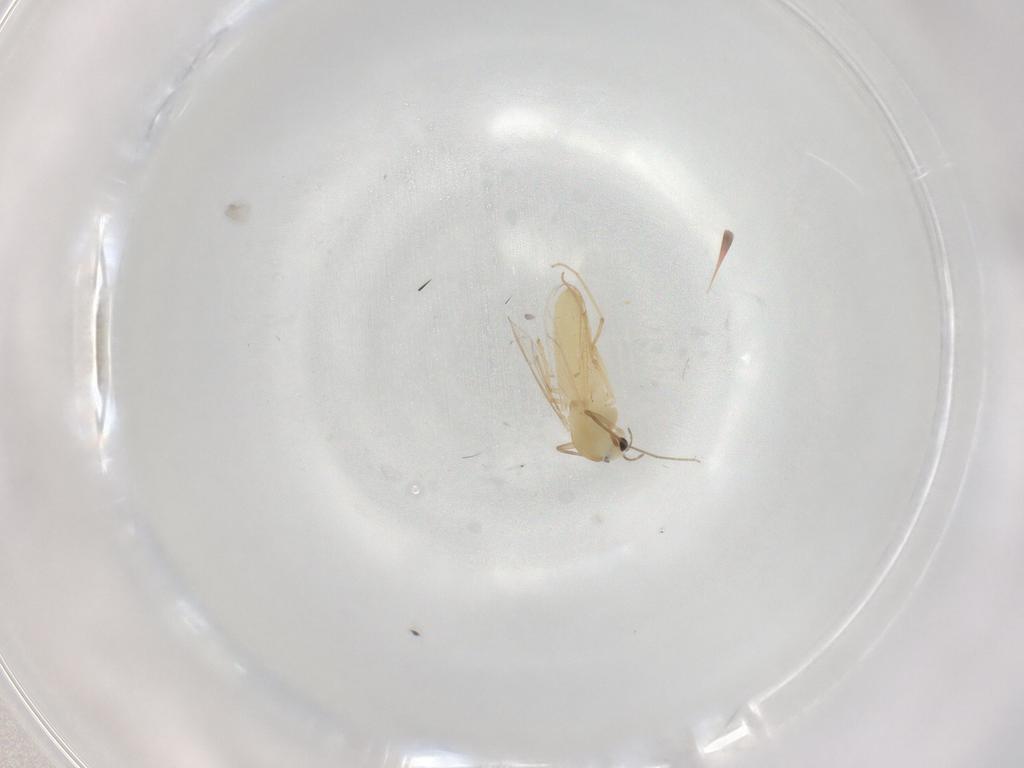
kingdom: Animalia
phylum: Arthropoda
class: Insecta
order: Diptera
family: Chironomidae
